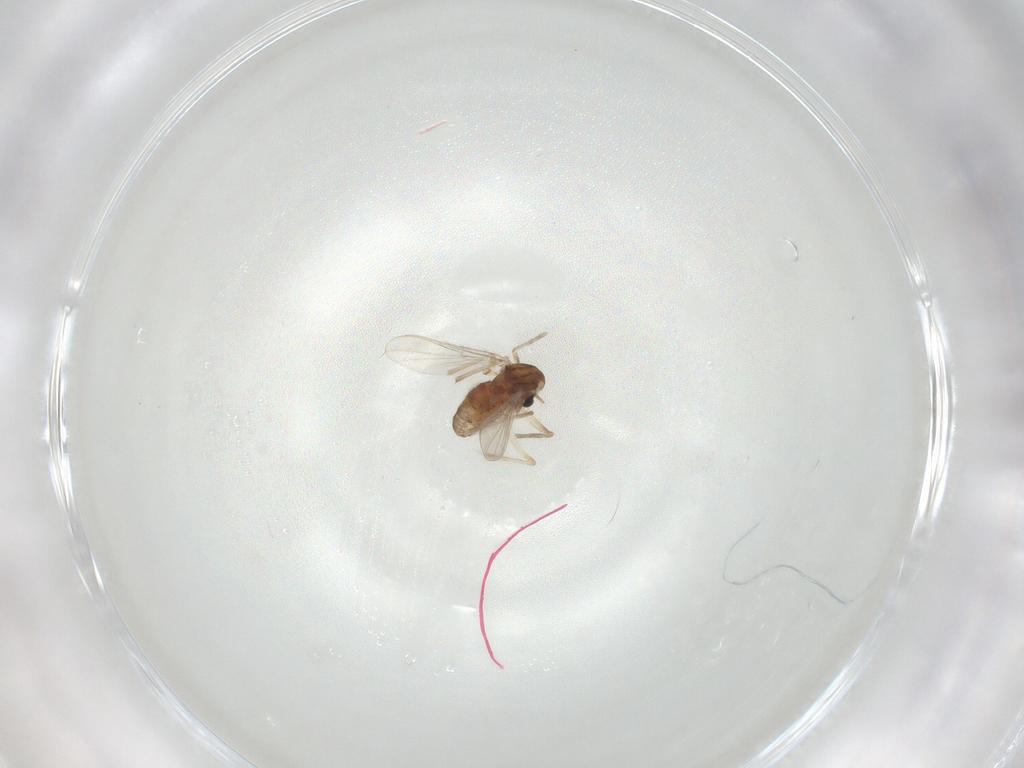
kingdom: Animalia
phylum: Arthropoda
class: Insecta
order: Diptera
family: Chironomidae
